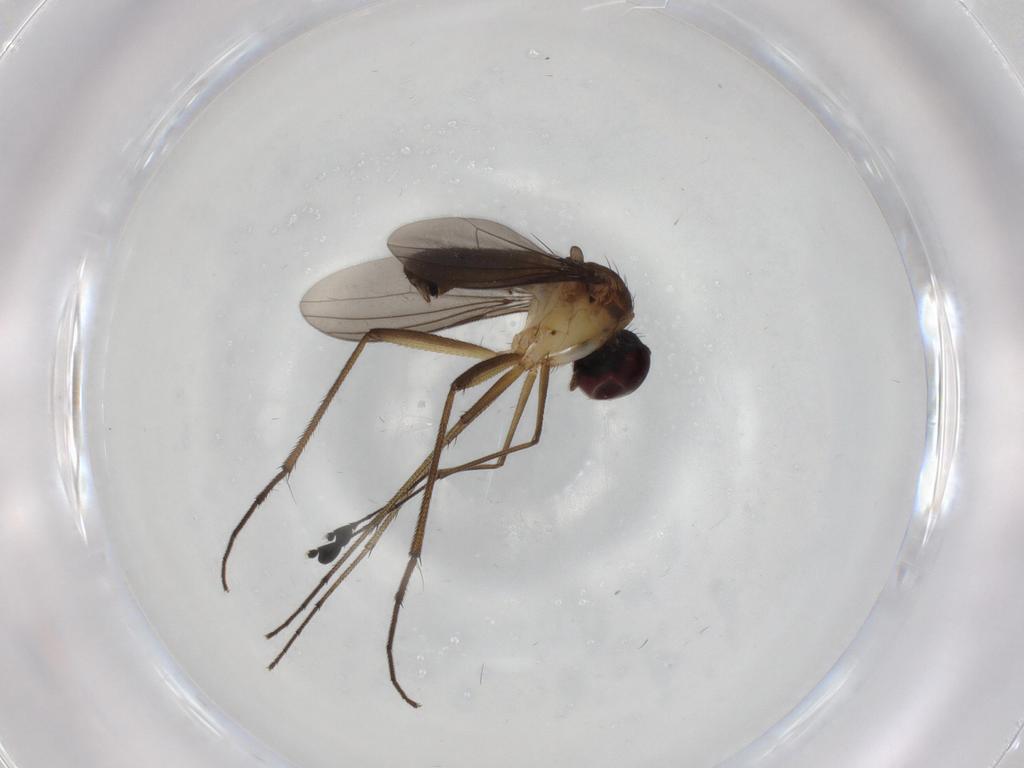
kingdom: Animalia
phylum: Arthropoda
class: Insecta
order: Diptera
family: Dolichopodidae
